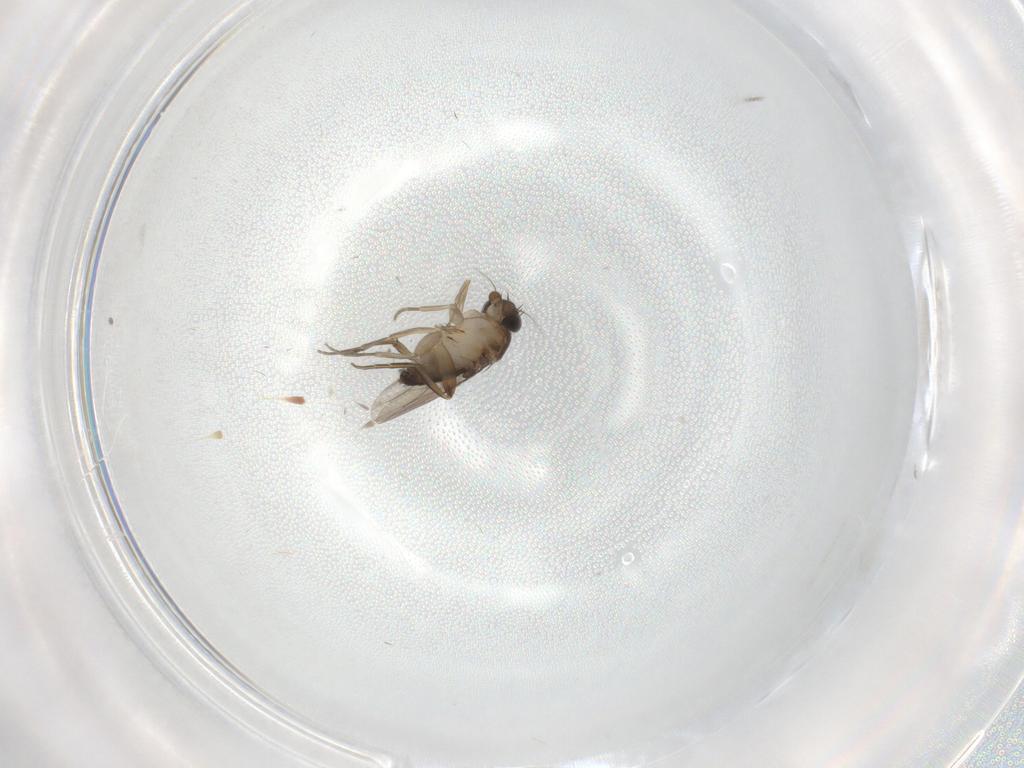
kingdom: Animalia
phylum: Arthropoda
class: Insecta
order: Diptera
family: Phoridae
